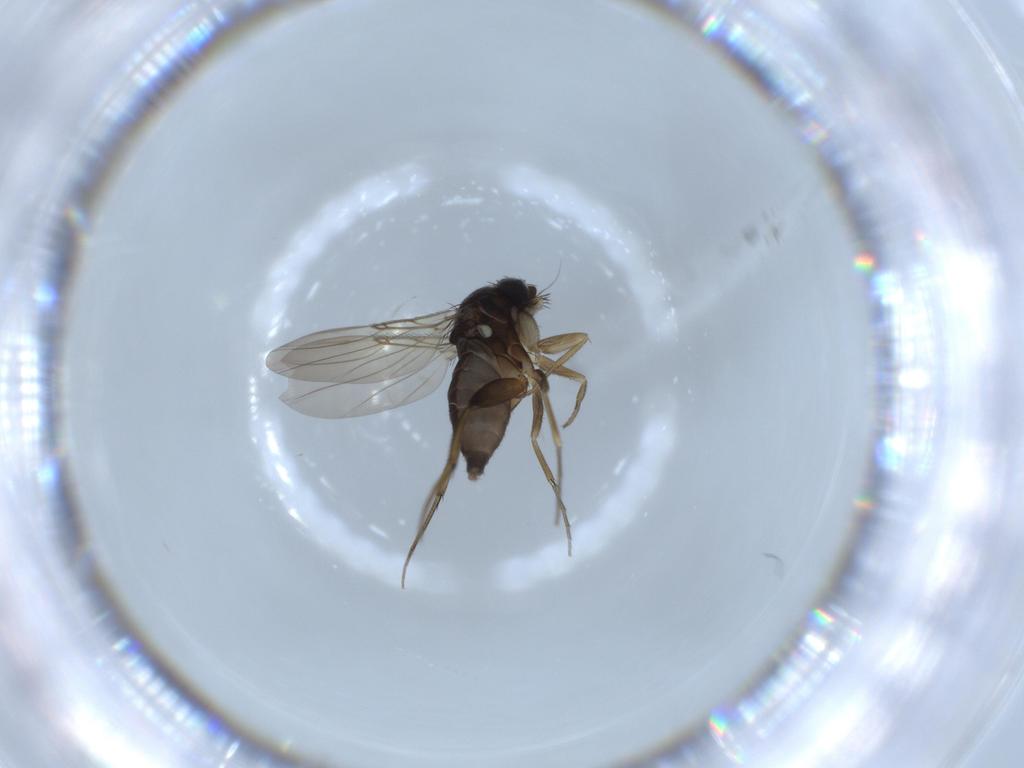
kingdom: Animalia
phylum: Arthropoda
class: Insecta
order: Diptera
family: Phoridae
